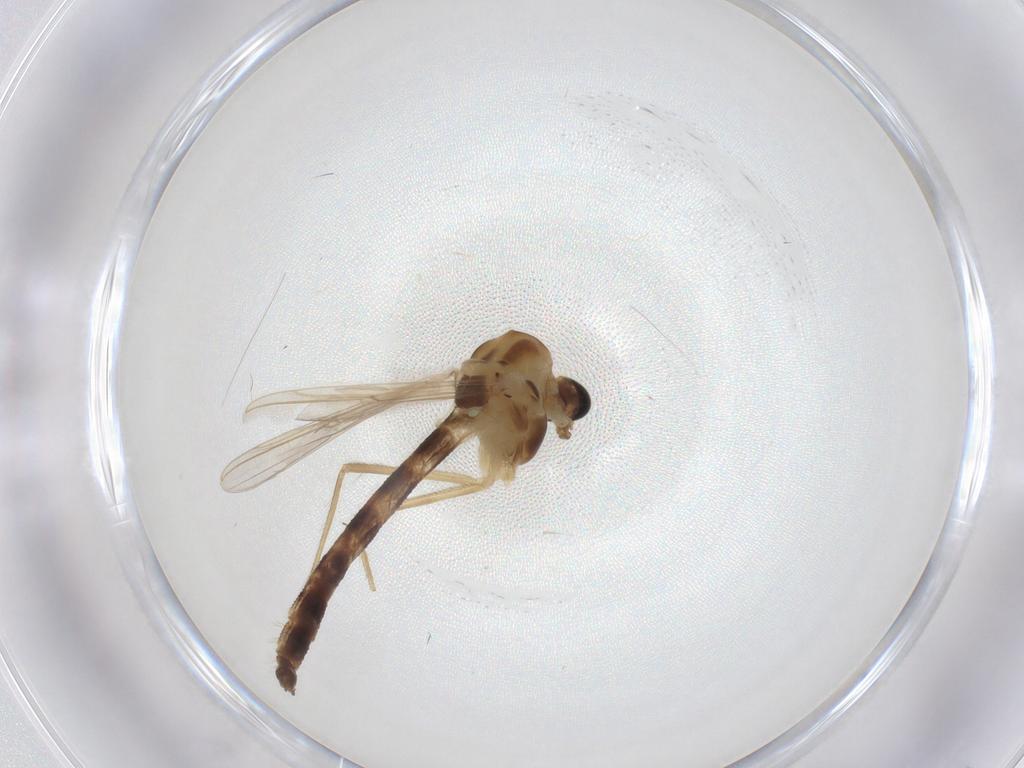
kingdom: Animalia
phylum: Arthropoda
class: Insecta
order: Diptera
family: Chironomidae
